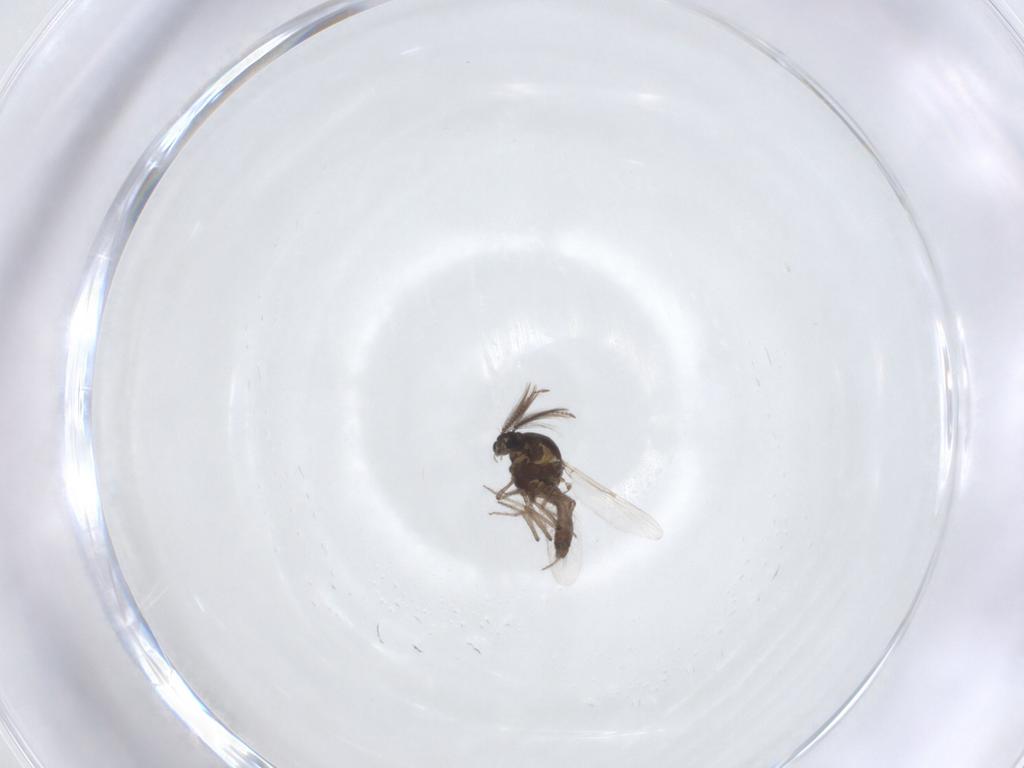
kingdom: Animalia
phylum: Arthropoda
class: Insecta
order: Diptera
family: Ceratopogonidae
